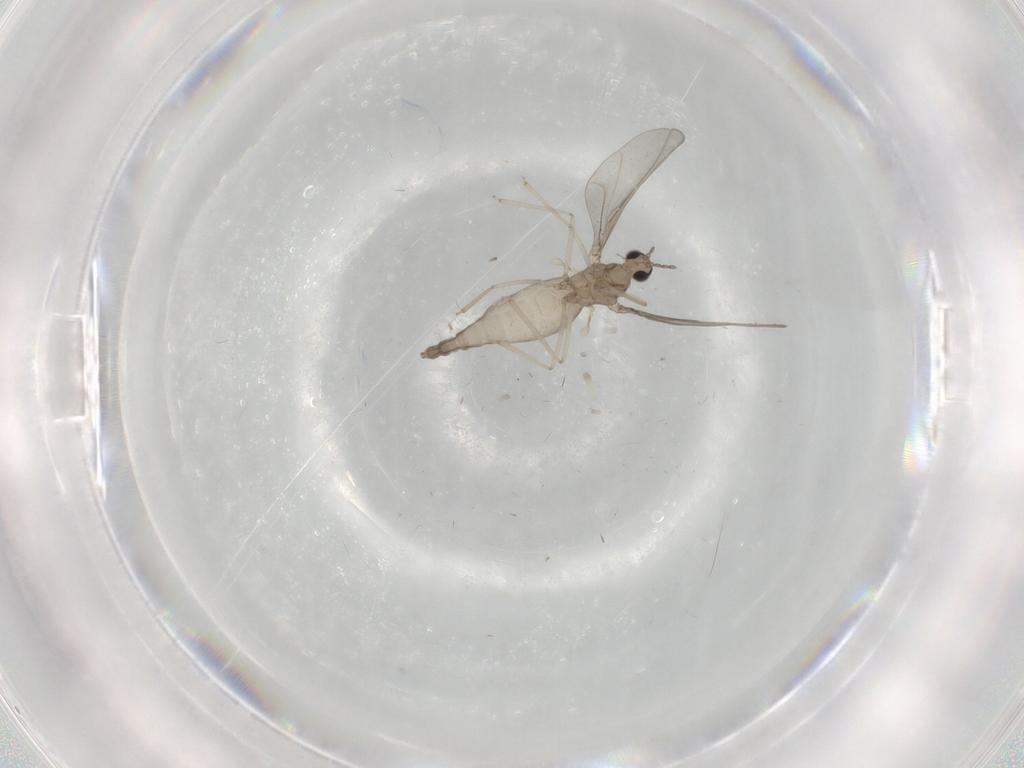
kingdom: Animalia
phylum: Arthropoda
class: Insecta
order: Diptera
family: Cecidomyiidae
